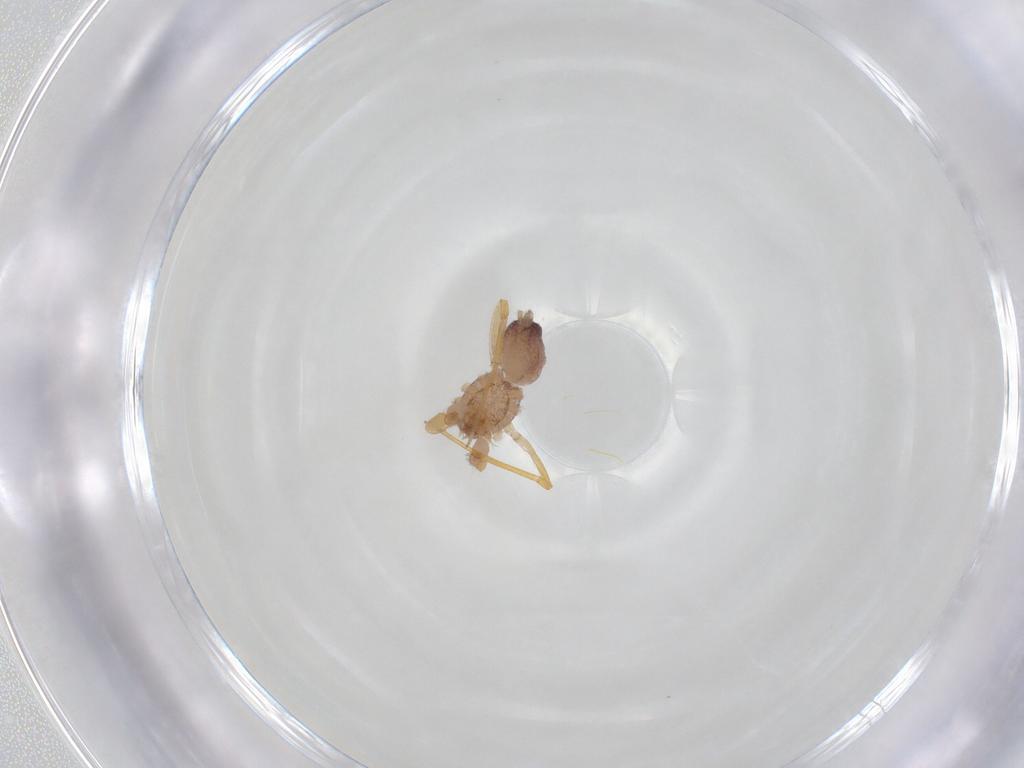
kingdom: Animalia
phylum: Arthropoda
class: Arachnida
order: Araneae
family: Idiopidae
